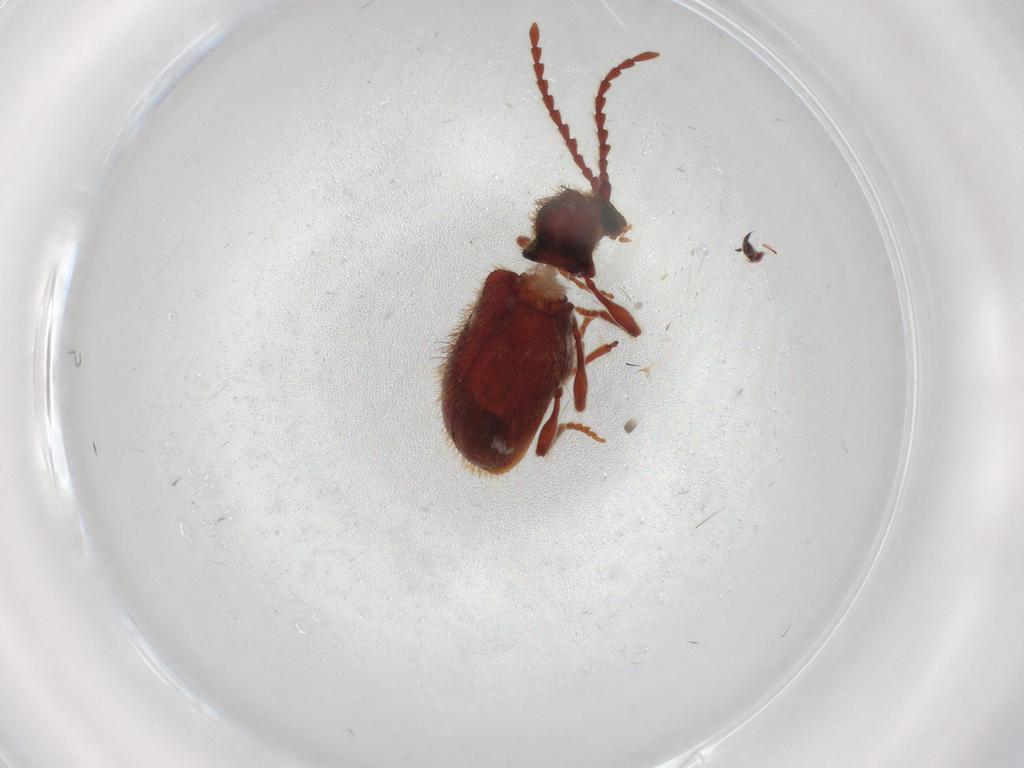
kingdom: Animalia
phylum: Arthropoda
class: Insecta
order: Coleoptera
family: Ptinidae
